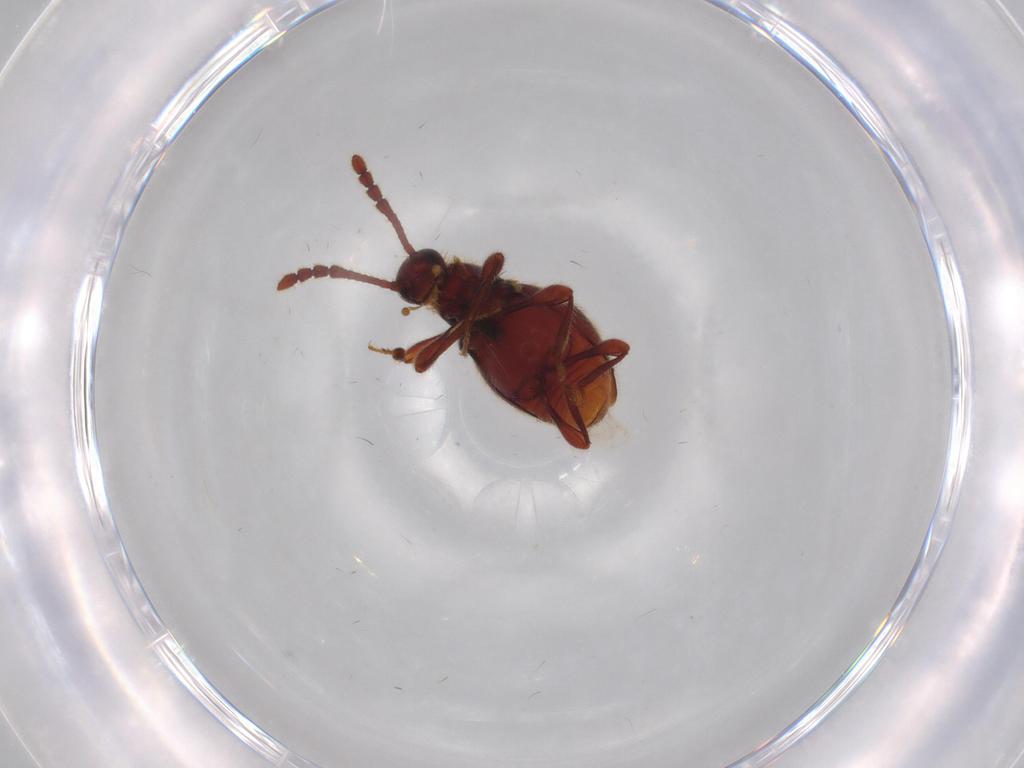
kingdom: Animalia
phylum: Arthropoda
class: Insecta
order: Coleoptera
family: Staphylinidae
